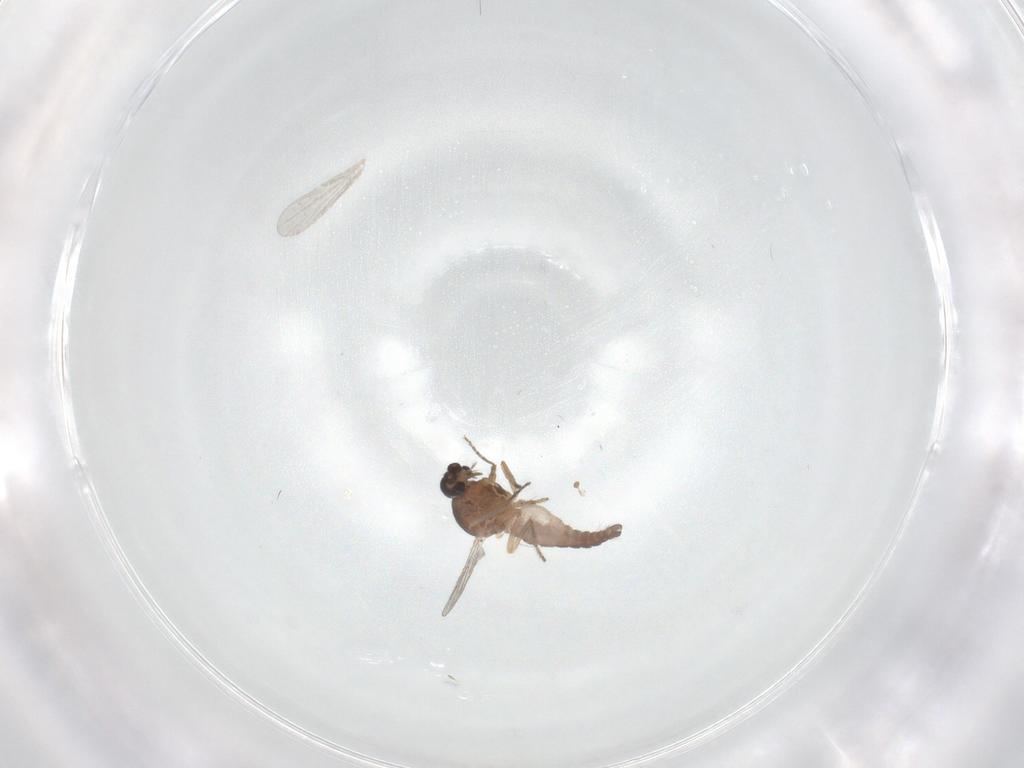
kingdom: Animalia
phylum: Arthropoda
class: Insecta
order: Diptera
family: Ceratopogonidae
